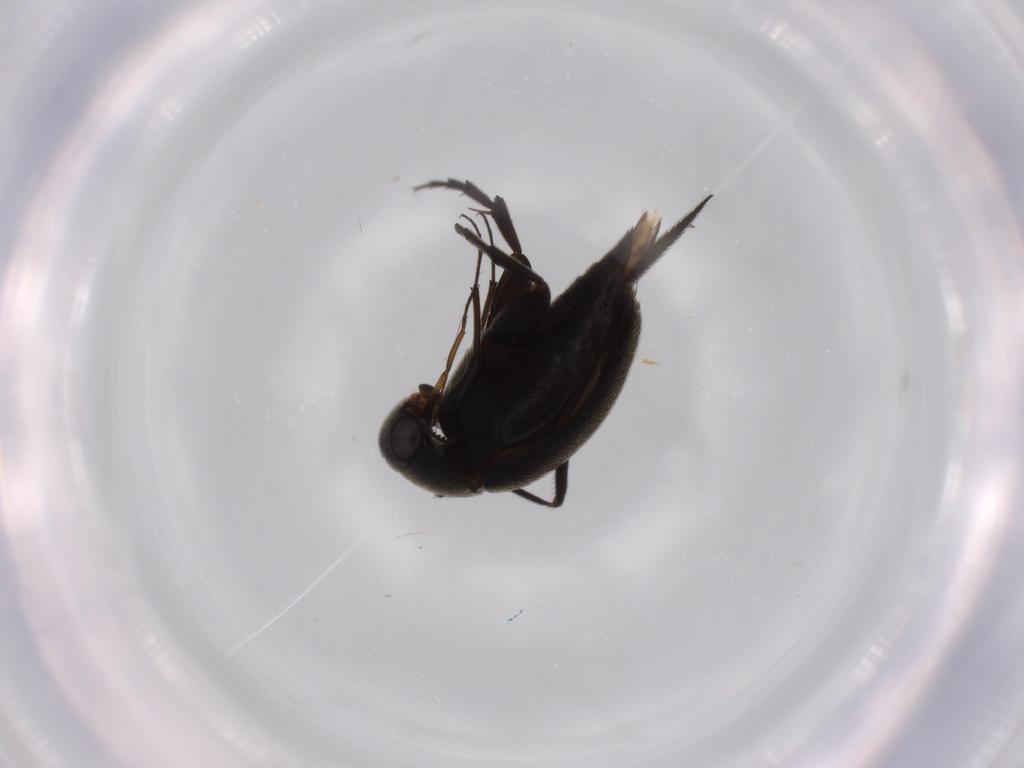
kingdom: Animalia
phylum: Arthropoda
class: Insecta
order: Coleoptera
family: Mordellidae
